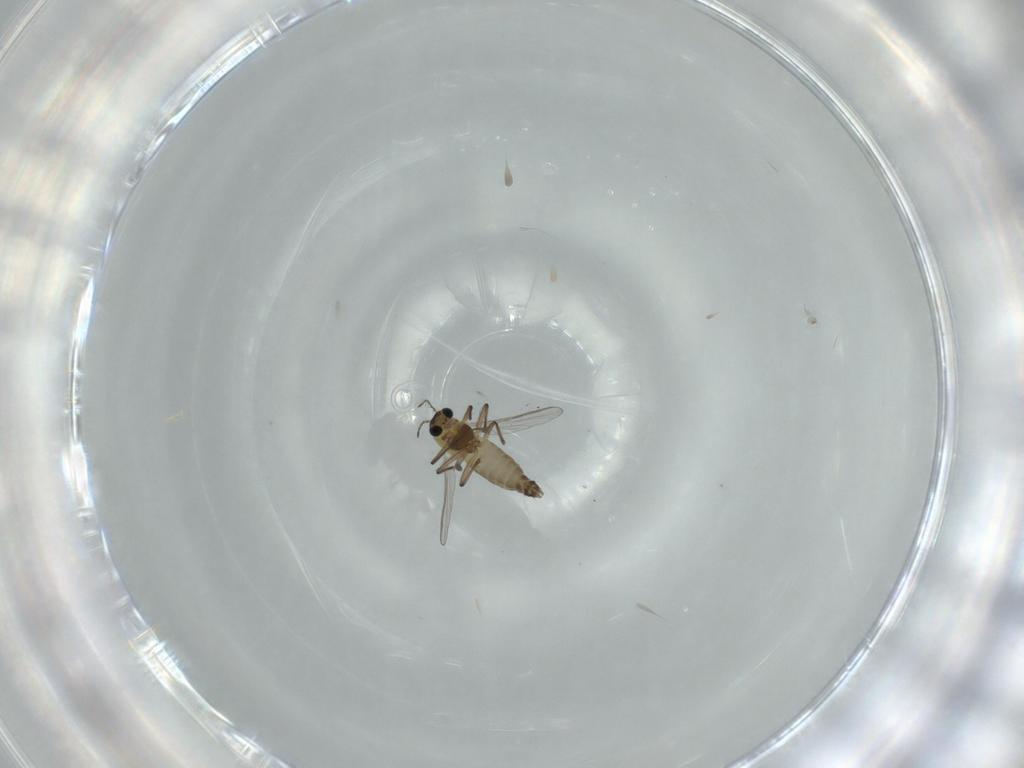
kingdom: Animalia
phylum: Arthropoda
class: Insecta
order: Diptera
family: Chironomidae
